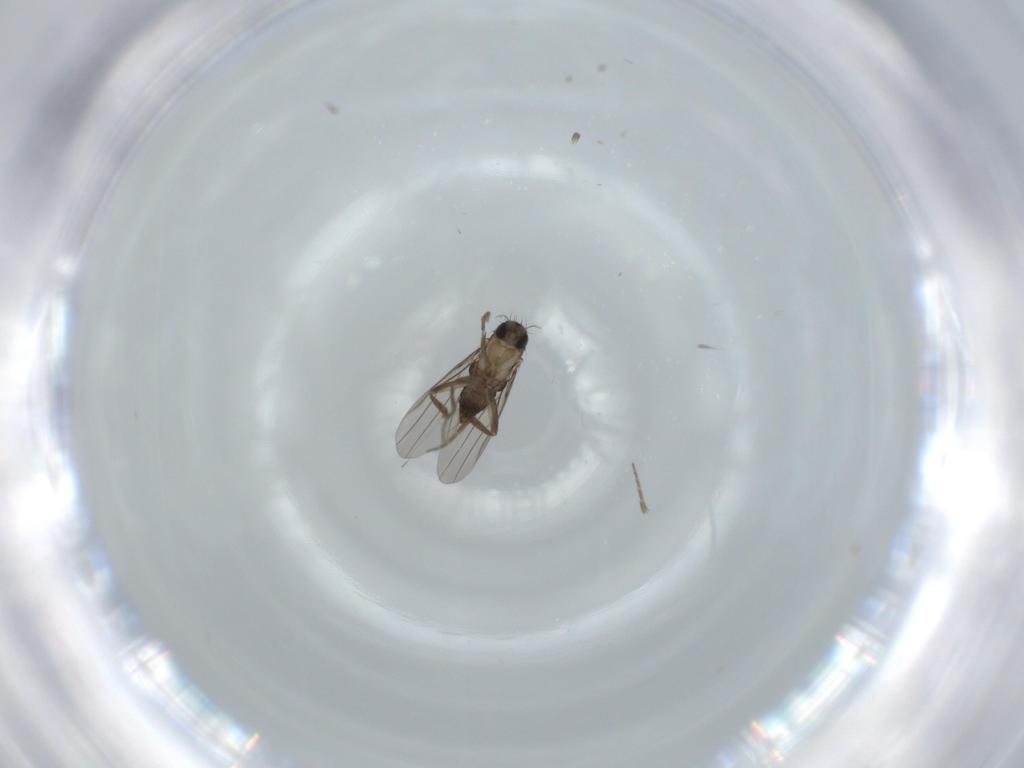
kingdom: Animalia
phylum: Arthropoda
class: Insecta
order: Diptera
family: Phoridae
